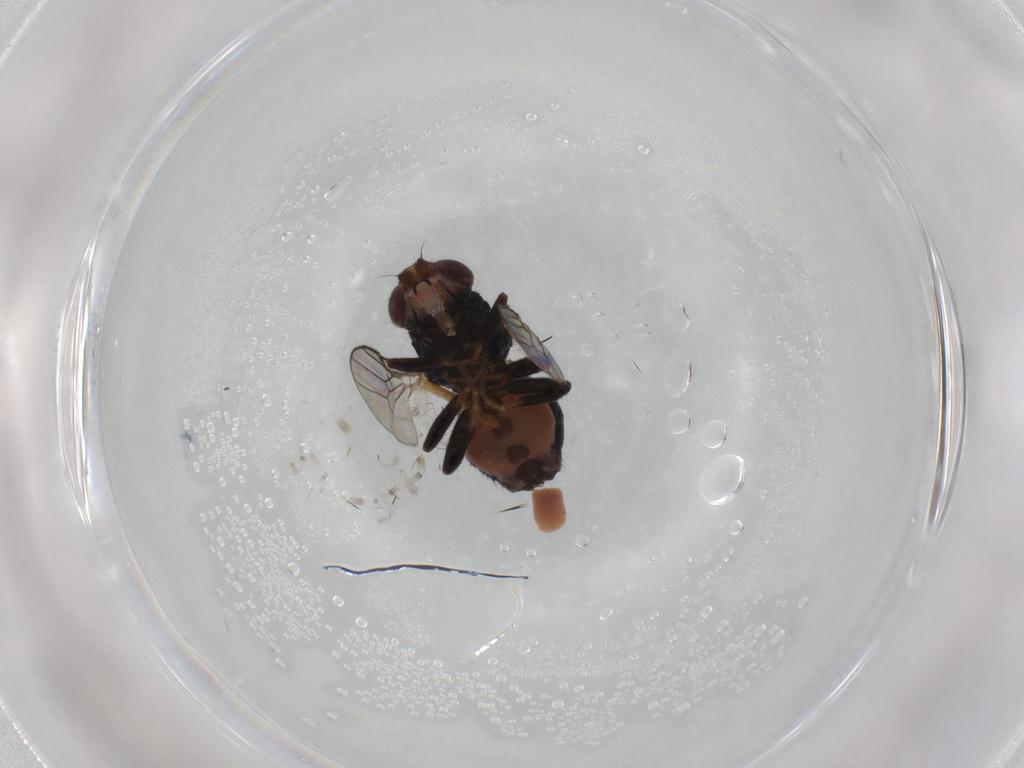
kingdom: Animalia
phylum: Arthropoda
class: Insecta
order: Diptera
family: Chloropidae
